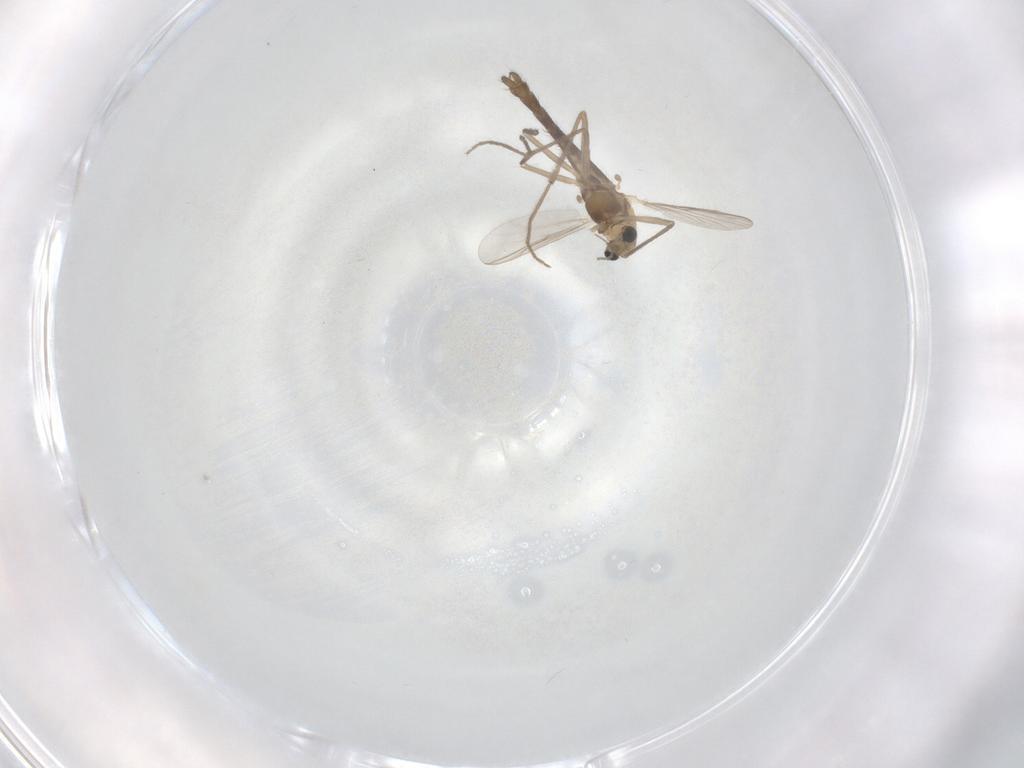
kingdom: Animalia
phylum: Arthropoda
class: Insecta
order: Diptera
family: Chironomidae
